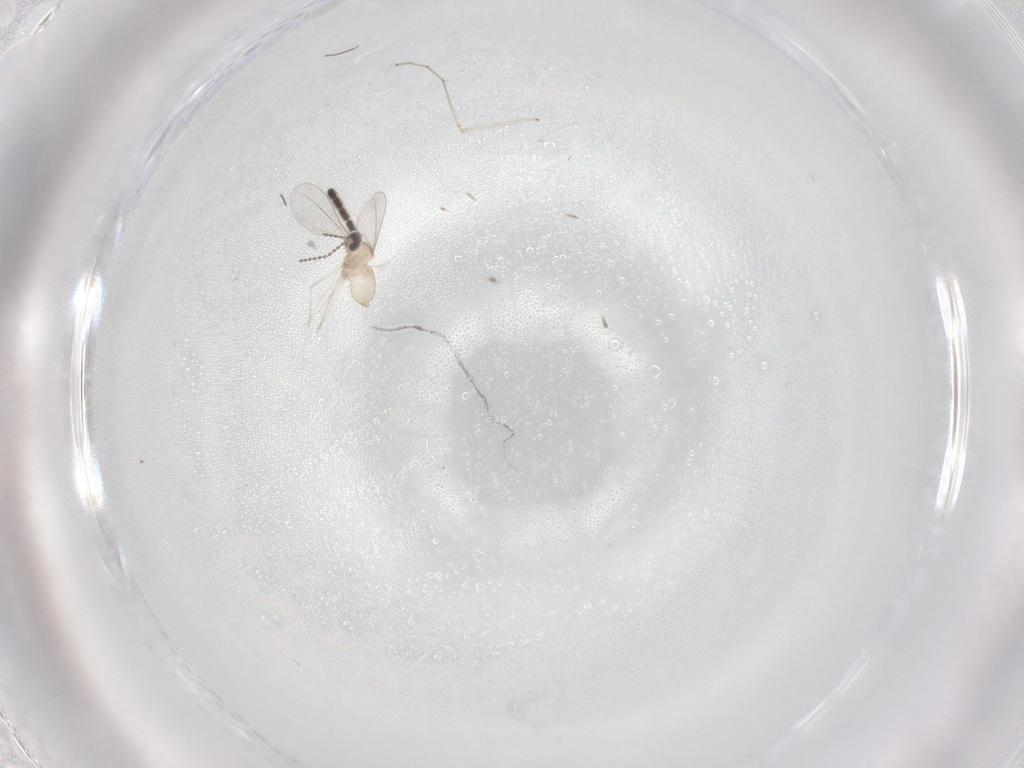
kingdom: Animalia
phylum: Arthropoda
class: Insecta
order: Diptera
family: Cecidomyiidae
